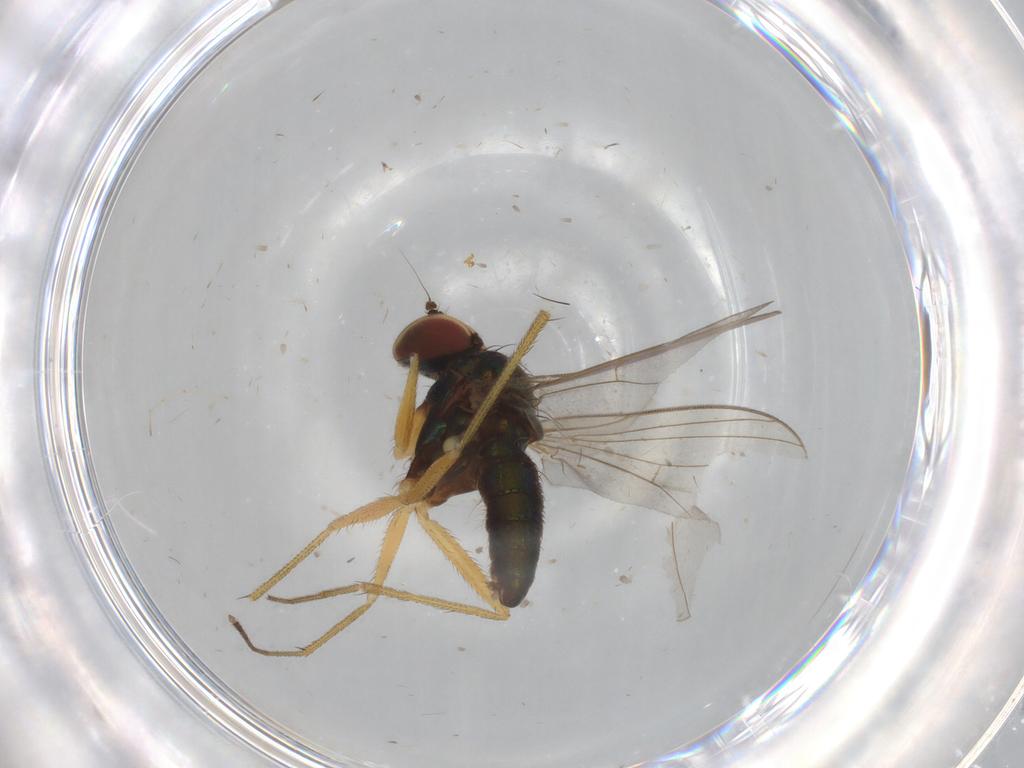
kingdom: Animalia
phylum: Arthropoda
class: Insecta
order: Diptera
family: Dolichopodidae
